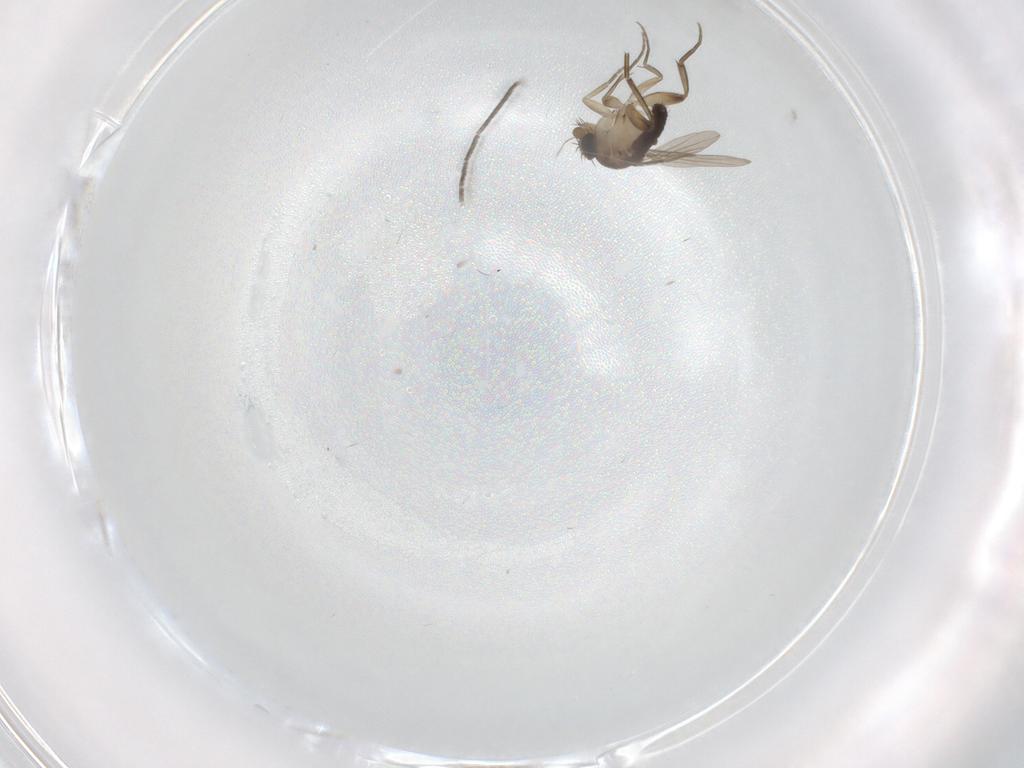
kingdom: Animalia
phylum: Arthropoda
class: Insecta
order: Diptera
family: Phoridae
